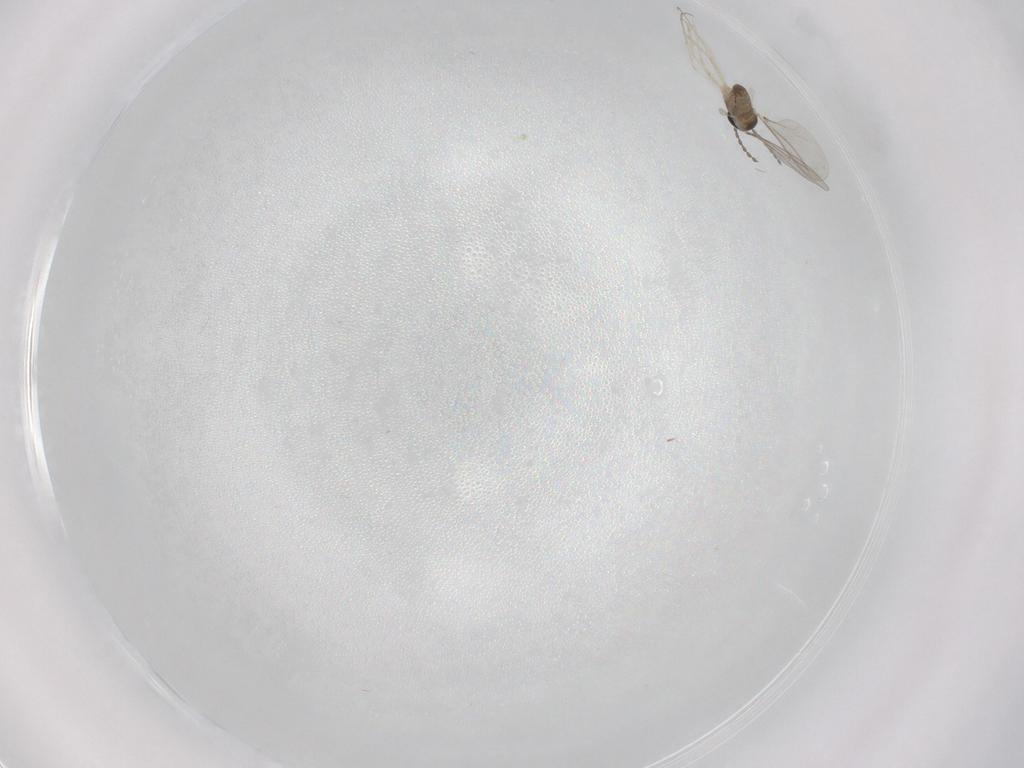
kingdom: Animalia
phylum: Arthropoda
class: Insecta
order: Diptera
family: Cecidomyiidae
